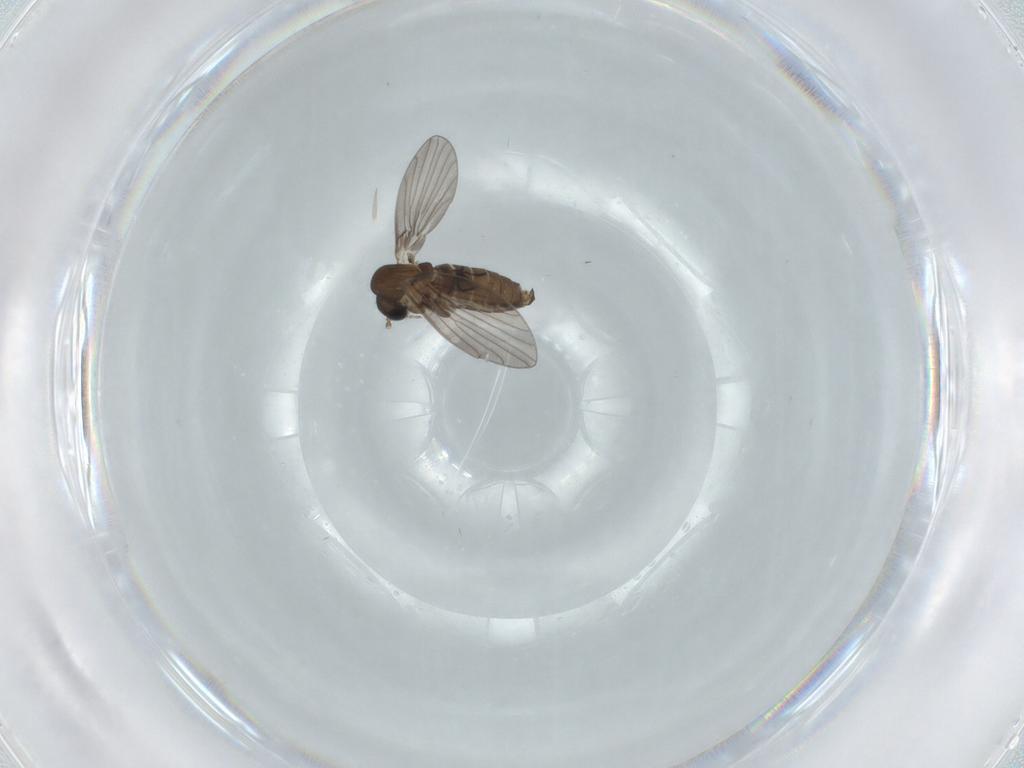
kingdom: Animalia
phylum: Arthropoda
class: Insecta
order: Diptera
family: Psychodidae
